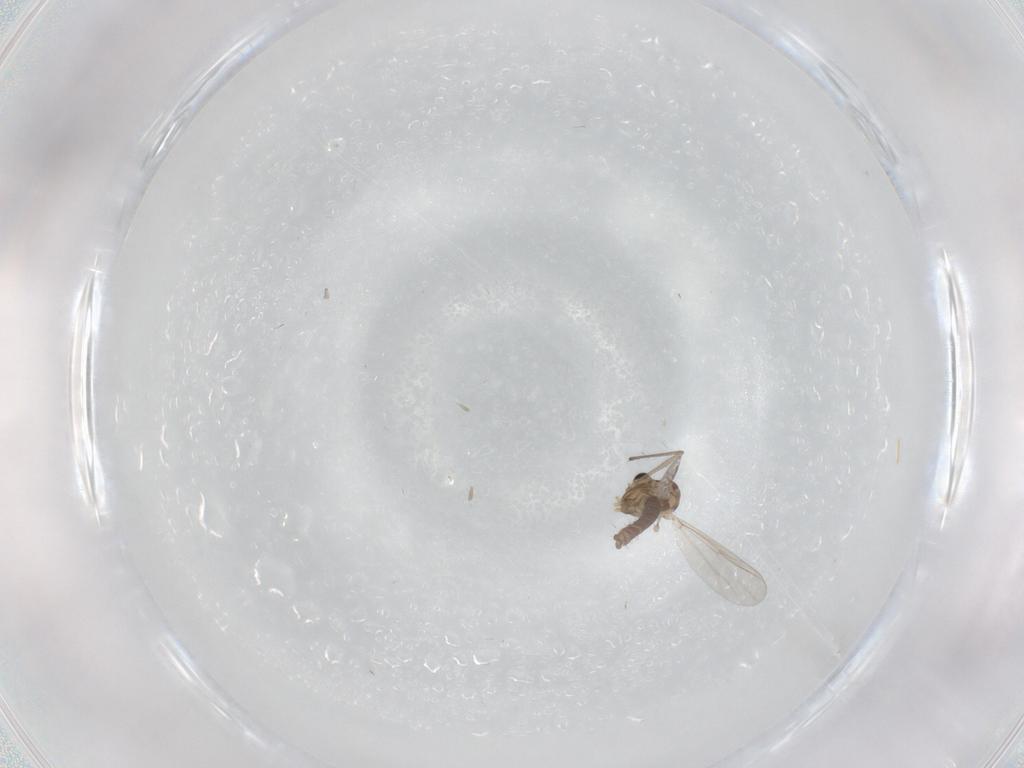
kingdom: Animalia
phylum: Arthropoda
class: Insecta
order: Diptera
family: Chironomidae
